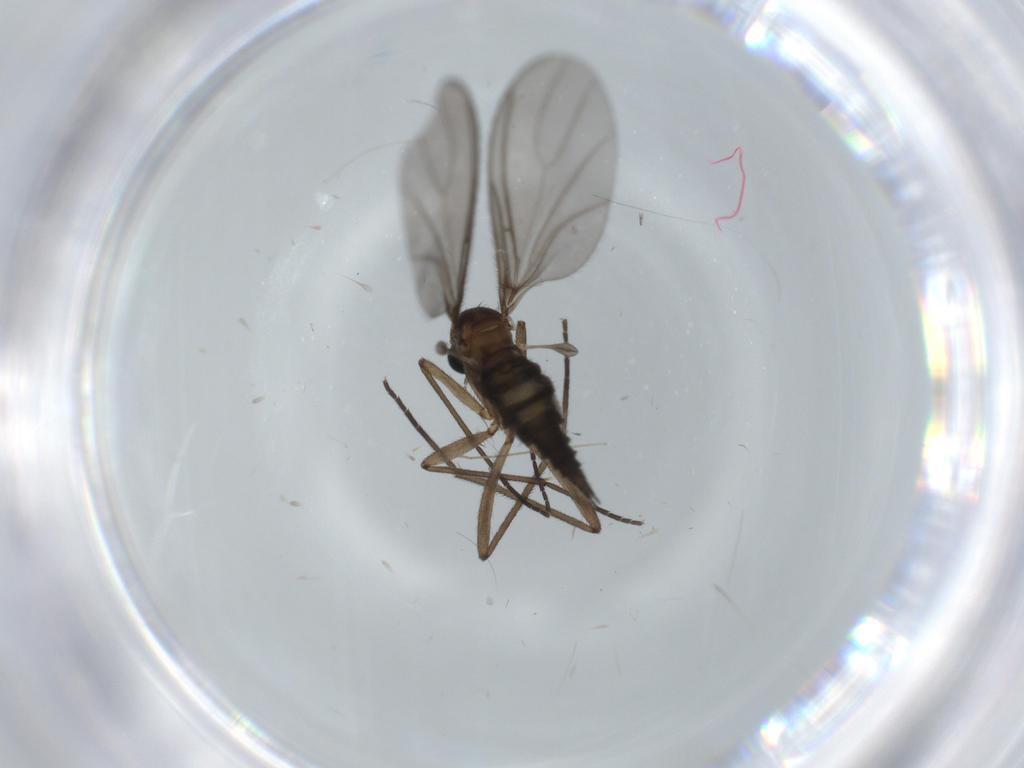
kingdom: Animalia
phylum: Arthropoda
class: Insecta
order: Diptera
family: Sciaridae
